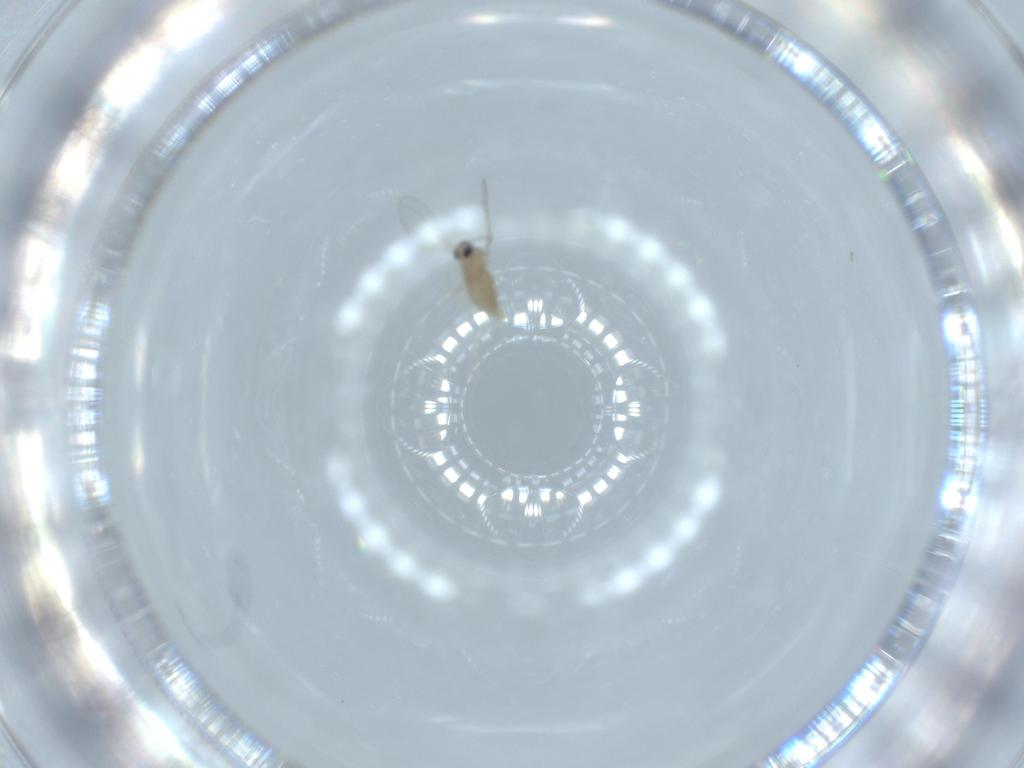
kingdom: Animalia
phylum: Arthropoda
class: Insecta
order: Diptera
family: Cecidomyiidae
